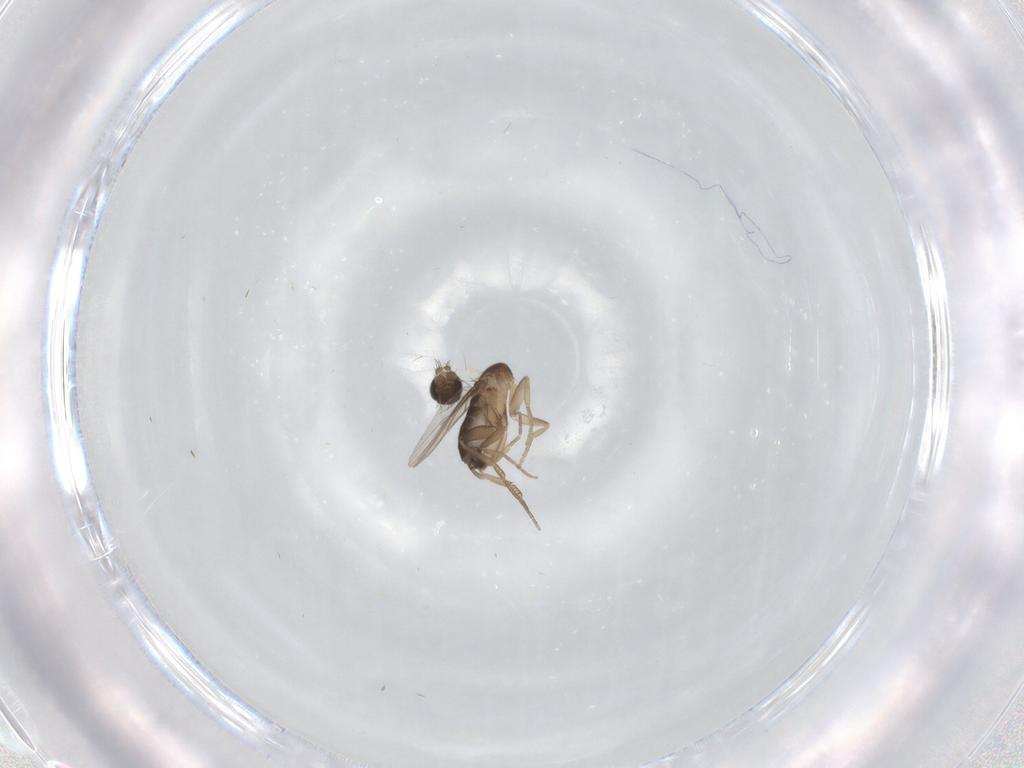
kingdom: Animalia
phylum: Arthropoda
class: Insecta
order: Diptera
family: Phoridae
